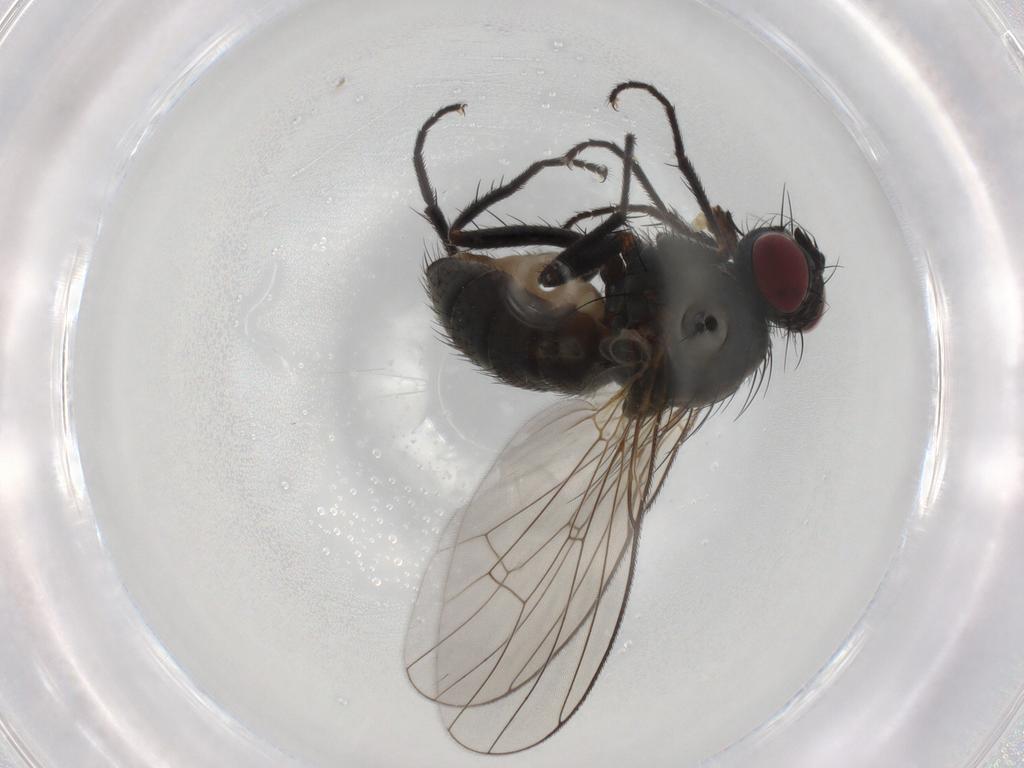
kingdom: Animalia
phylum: Arthropoda
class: Insecta
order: Diptera
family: Muscidae
